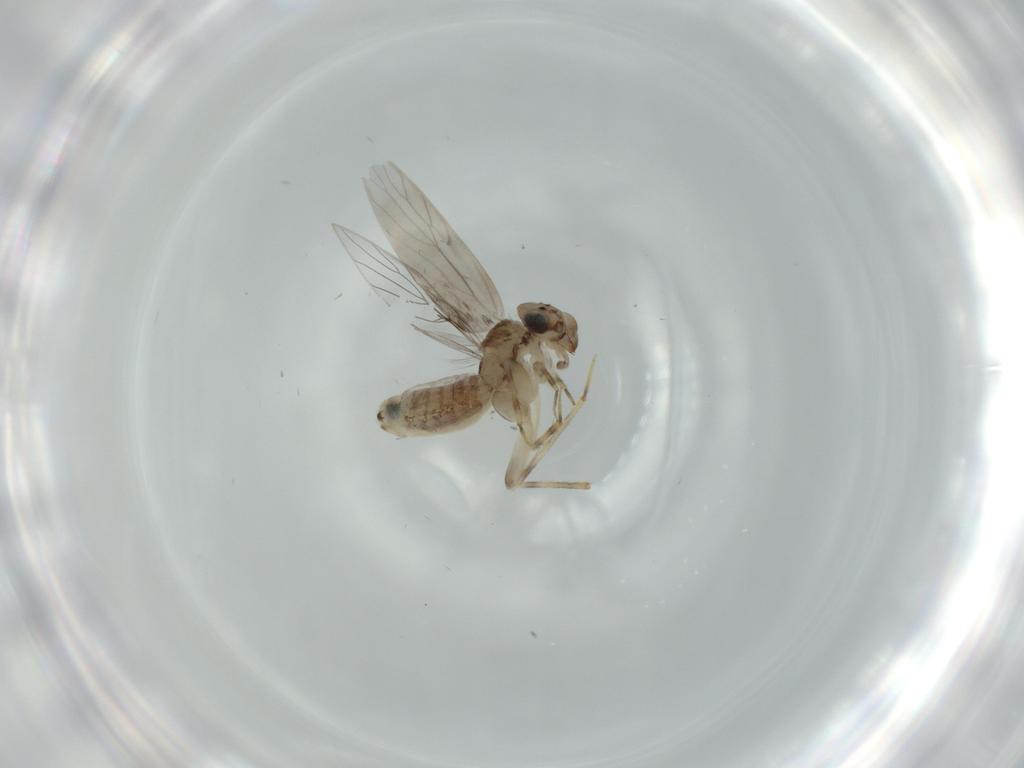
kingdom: Animalia
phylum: Arthropoda
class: Insecta
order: Psocodea
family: Lepidopsocidae
